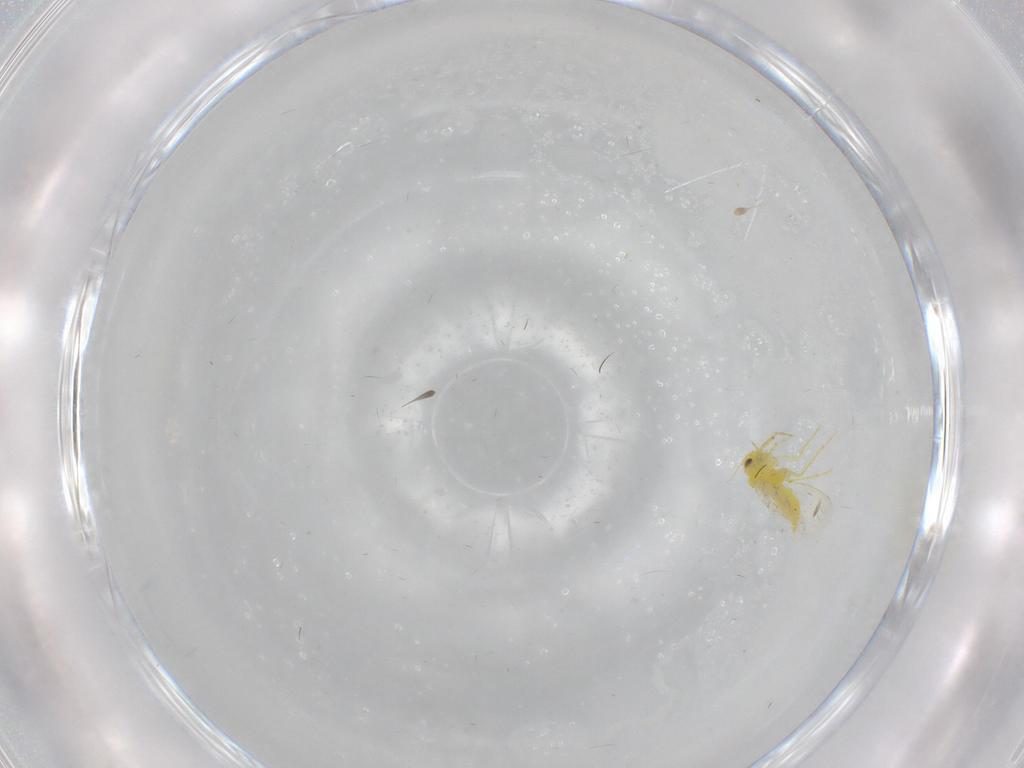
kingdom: Animalia
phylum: Arthropoda
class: Insecta
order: Hemiptera
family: Aleyrodidae
